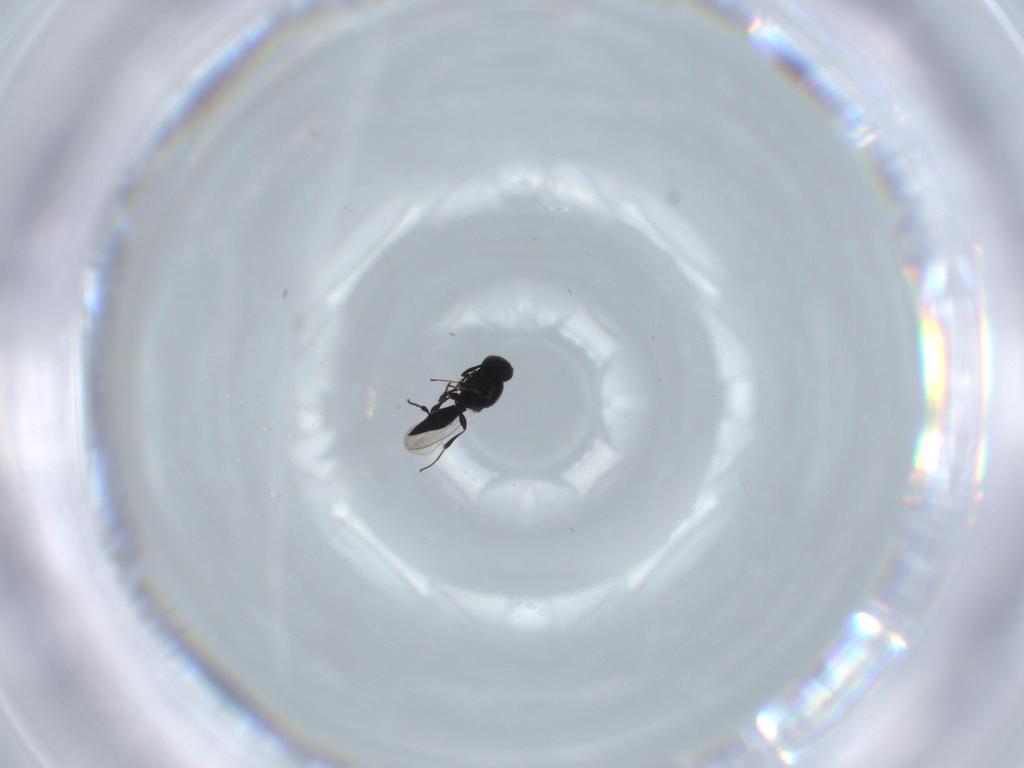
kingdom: Animalia
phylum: Arthropoda
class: Insecta
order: Diptera
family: Mythicomyiidae
